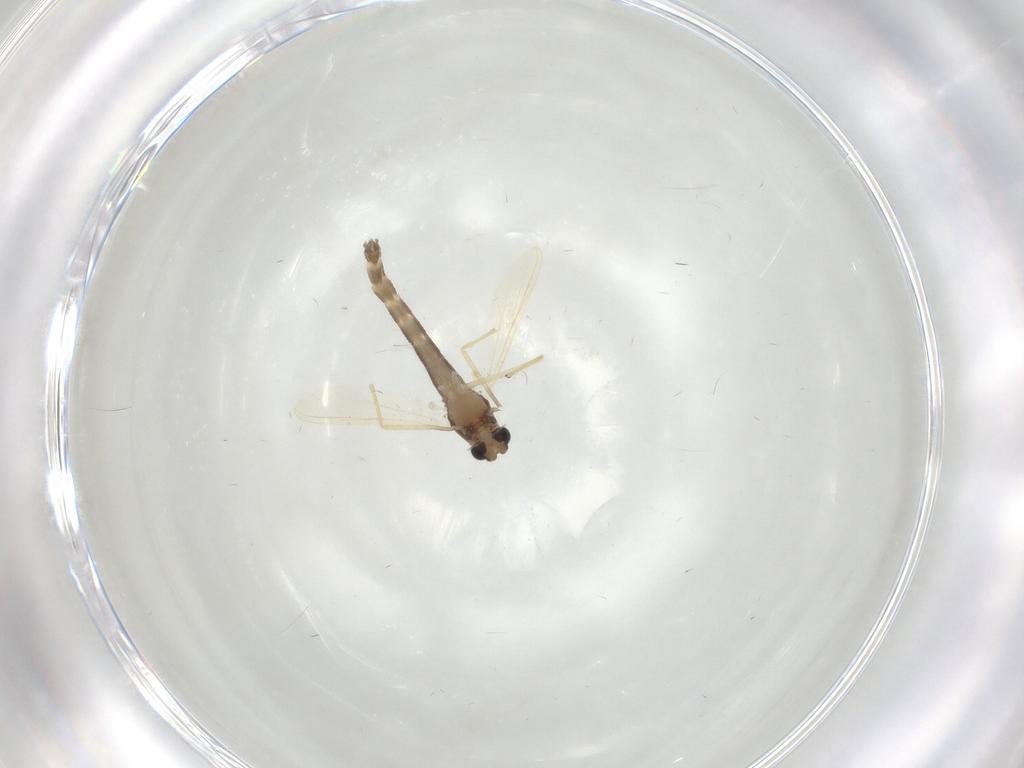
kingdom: Animalia
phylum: Arthropoda
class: Insecta
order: Diptera
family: Chironomidae
